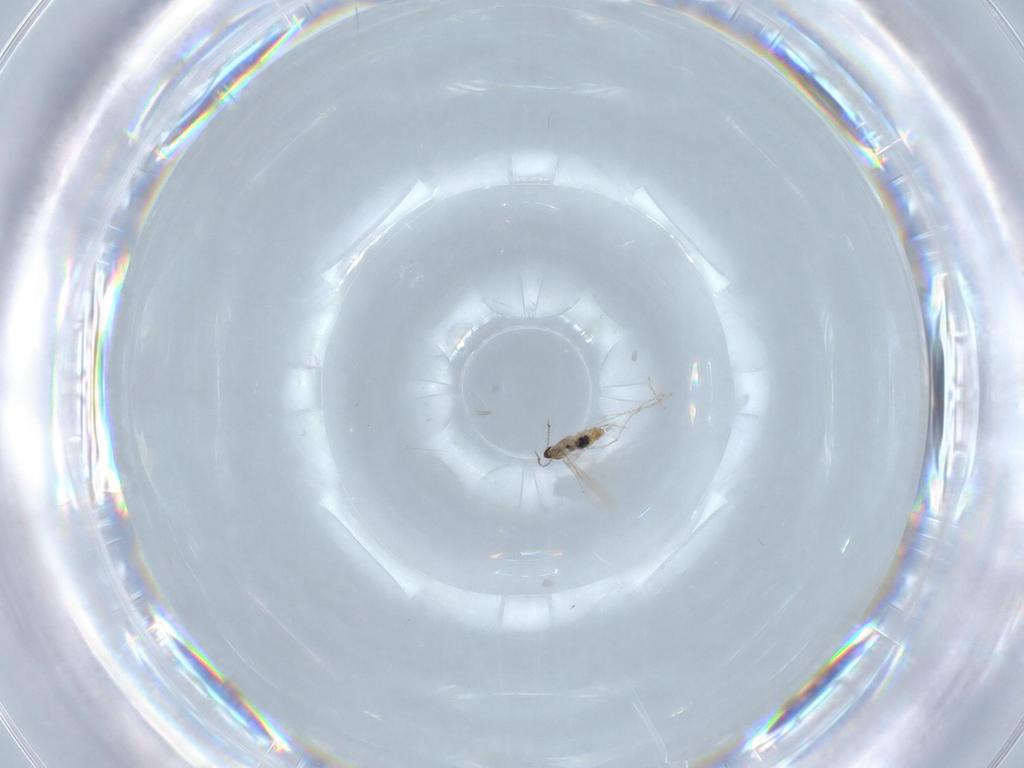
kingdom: Animalia
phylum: Arthropoda
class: Insecta
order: Diptera
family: Cecidomyiidae
